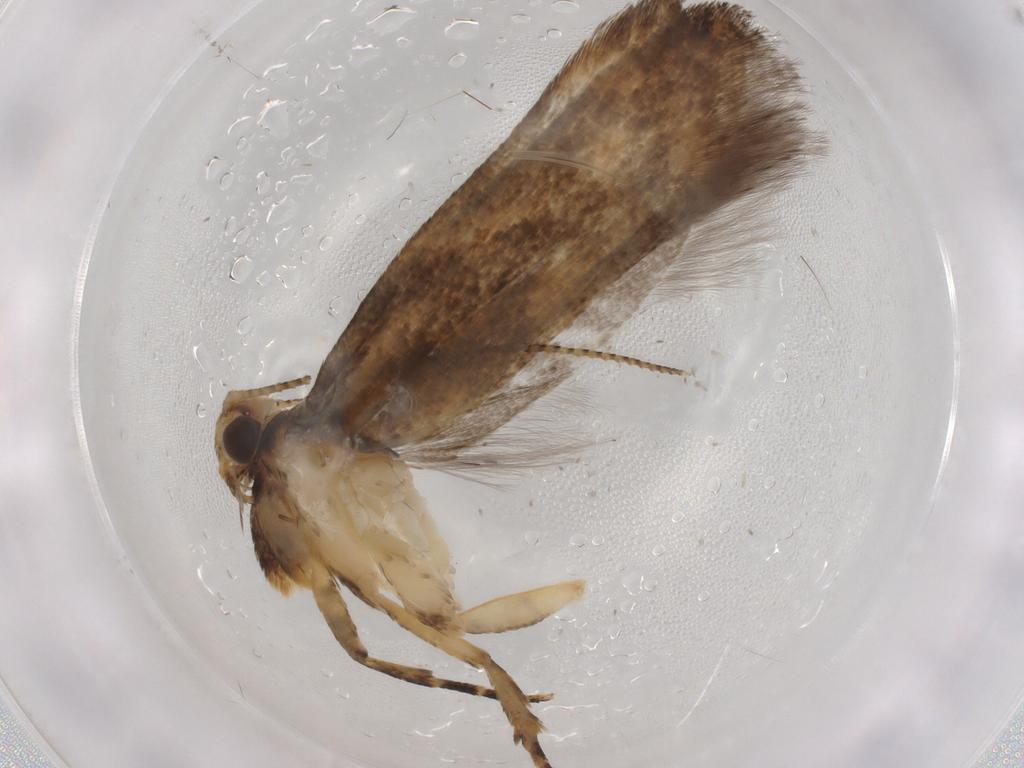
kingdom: Animalia
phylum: Arthropoda
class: Insecta
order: Lepidoptera
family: Plutellidae
